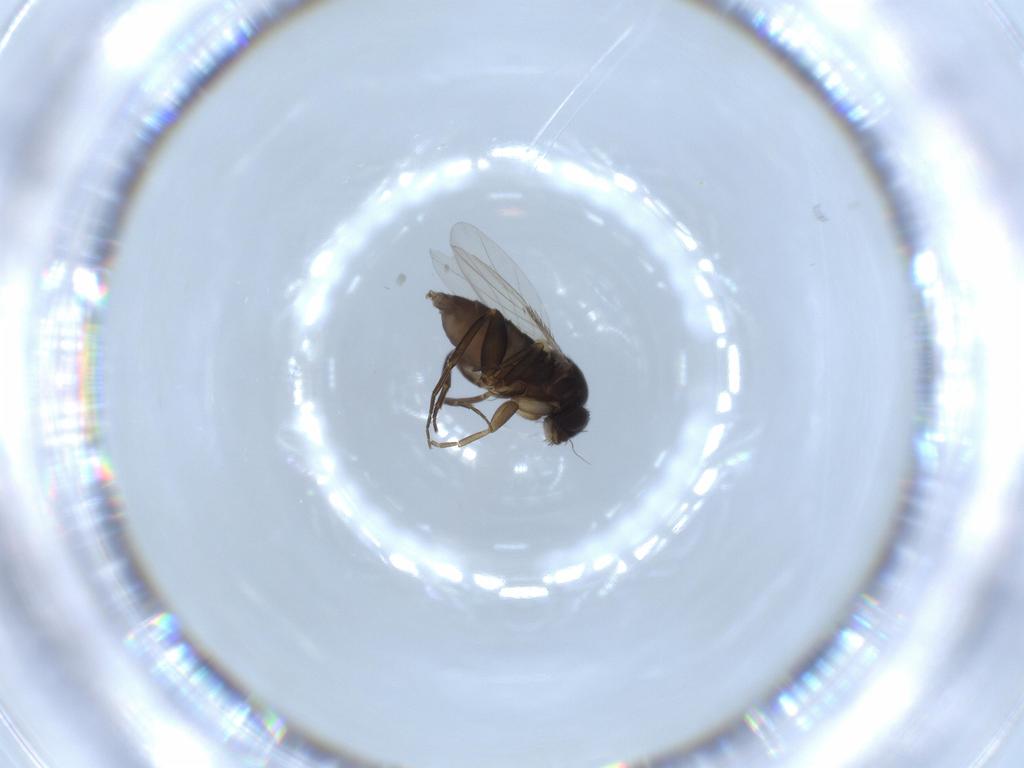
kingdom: Animalia
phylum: Arthropoda
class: Insecta
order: Diptera
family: Phoridae
